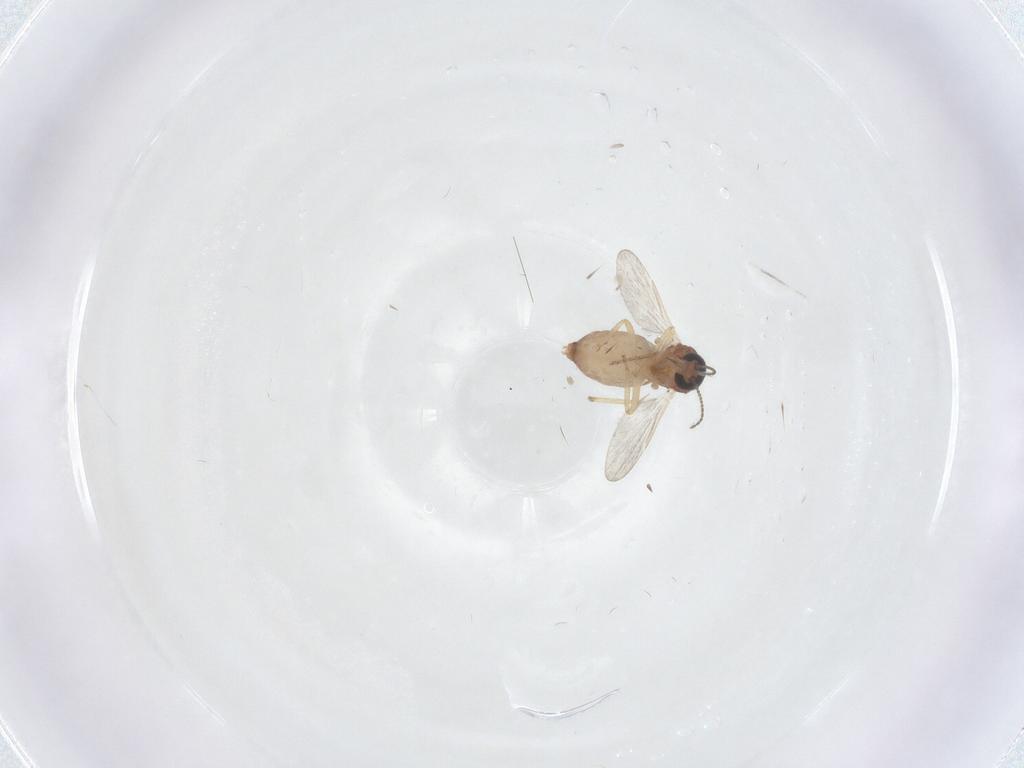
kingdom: Animalia
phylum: Arthropoda
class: Insecta
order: Diptera
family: Ceratopogonidae
